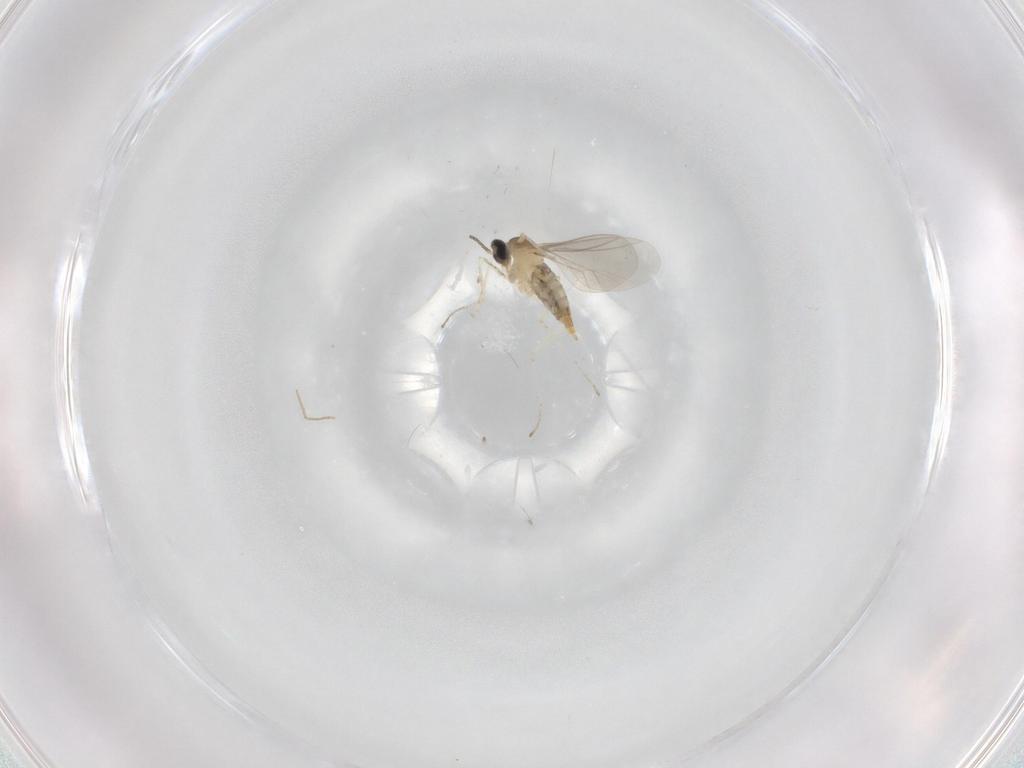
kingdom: Animalia
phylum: Arthropoda
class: Insecta
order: Diptera
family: Cecidomyiidae
